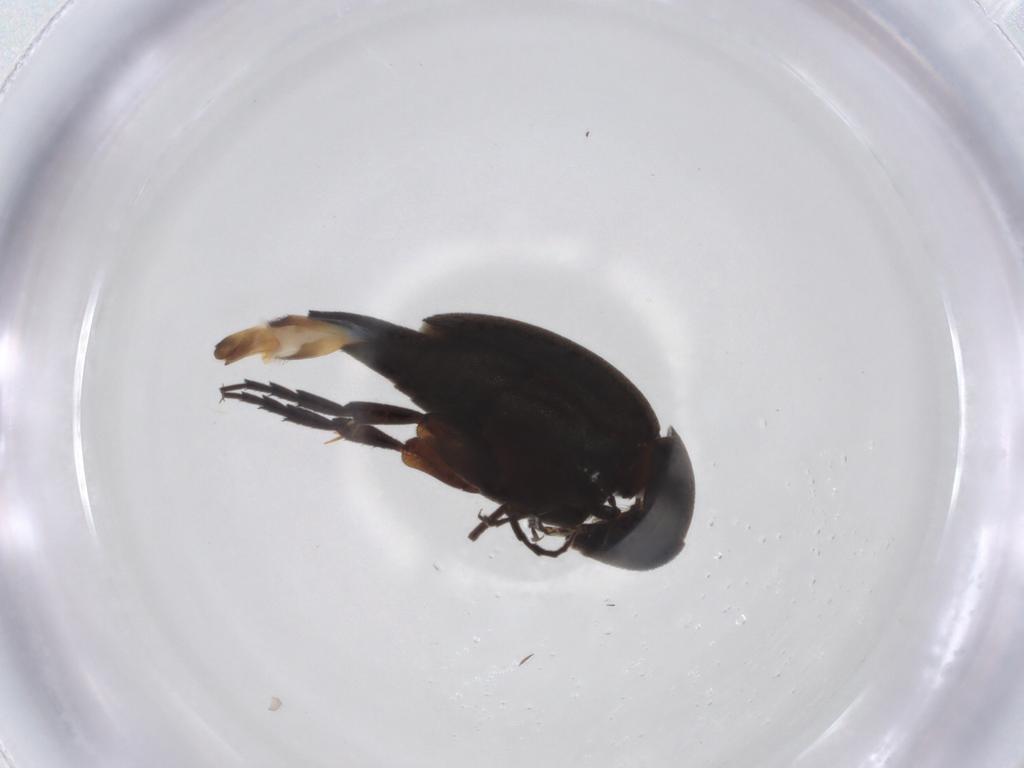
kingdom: Animalia
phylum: Arthropoda
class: Insecta
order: Coleoptera
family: Mordellidae
